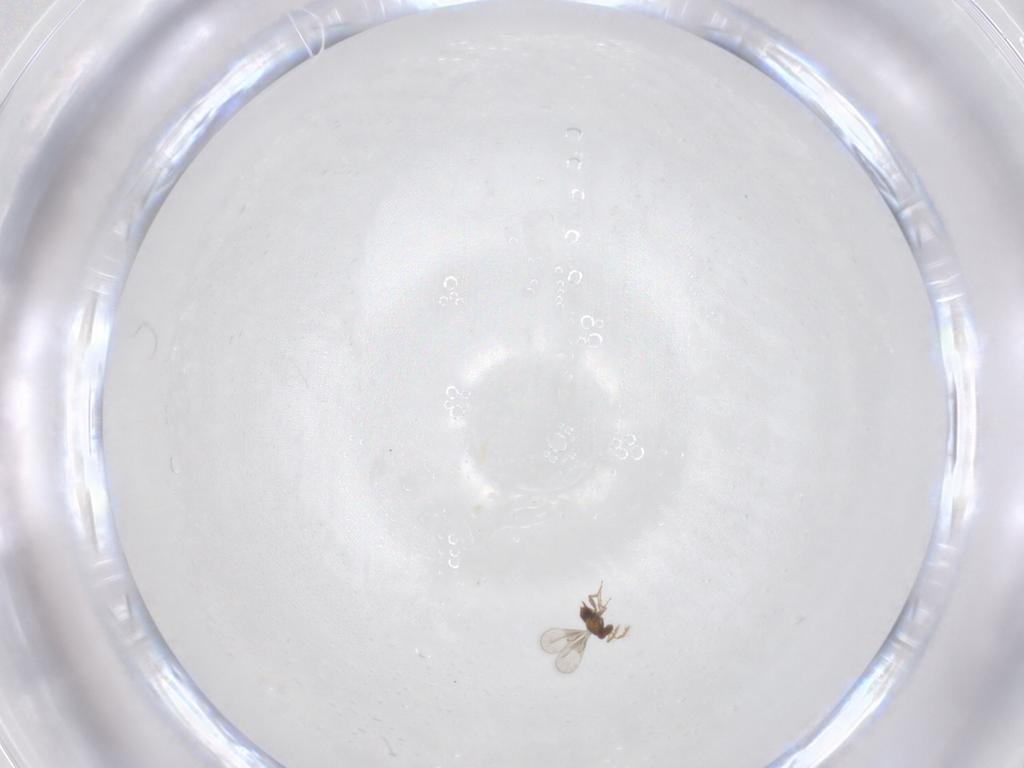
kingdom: Animalia
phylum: Arthropoda
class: Insecta
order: Hymenoptera
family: Trichogrammatidae
